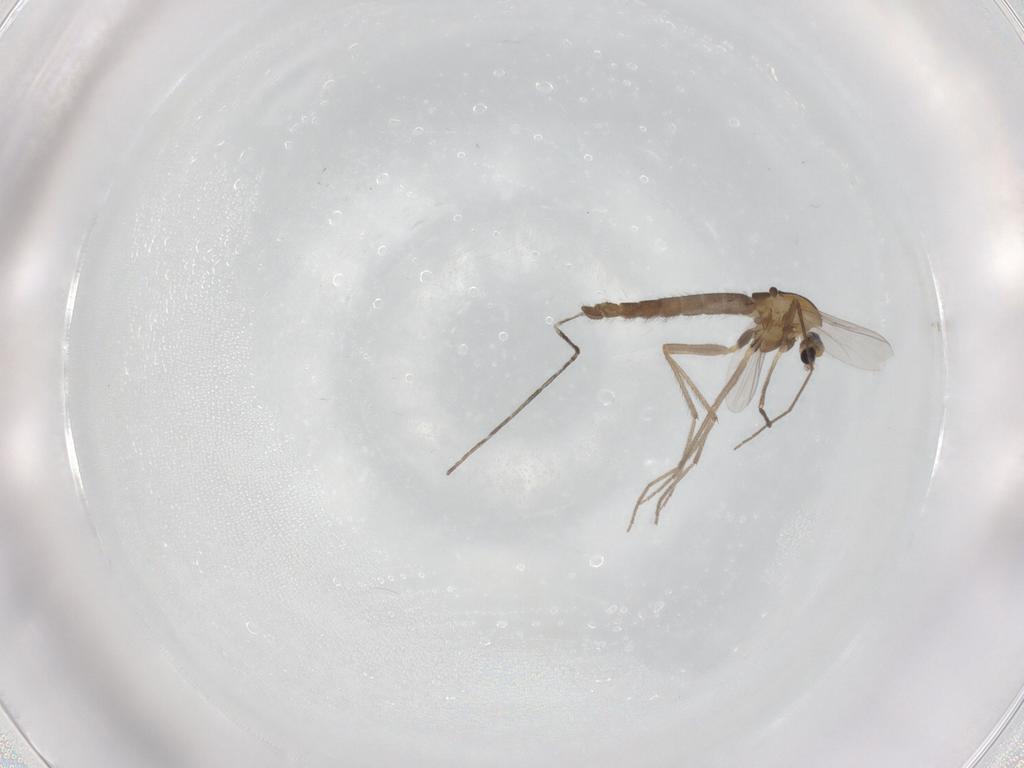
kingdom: Animalia
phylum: Arthropoda
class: Insecta
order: Diptera
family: Chironomidae
